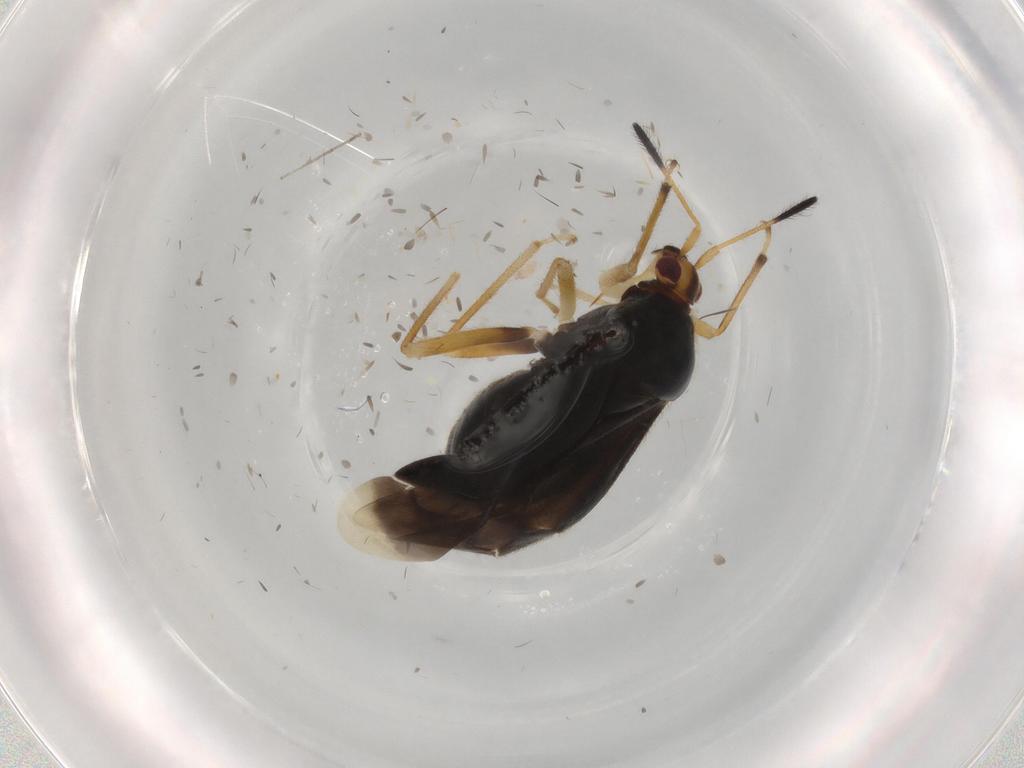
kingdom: Animalia
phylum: Arthropoda
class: Insecta
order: Hemiptera
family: Miridae
